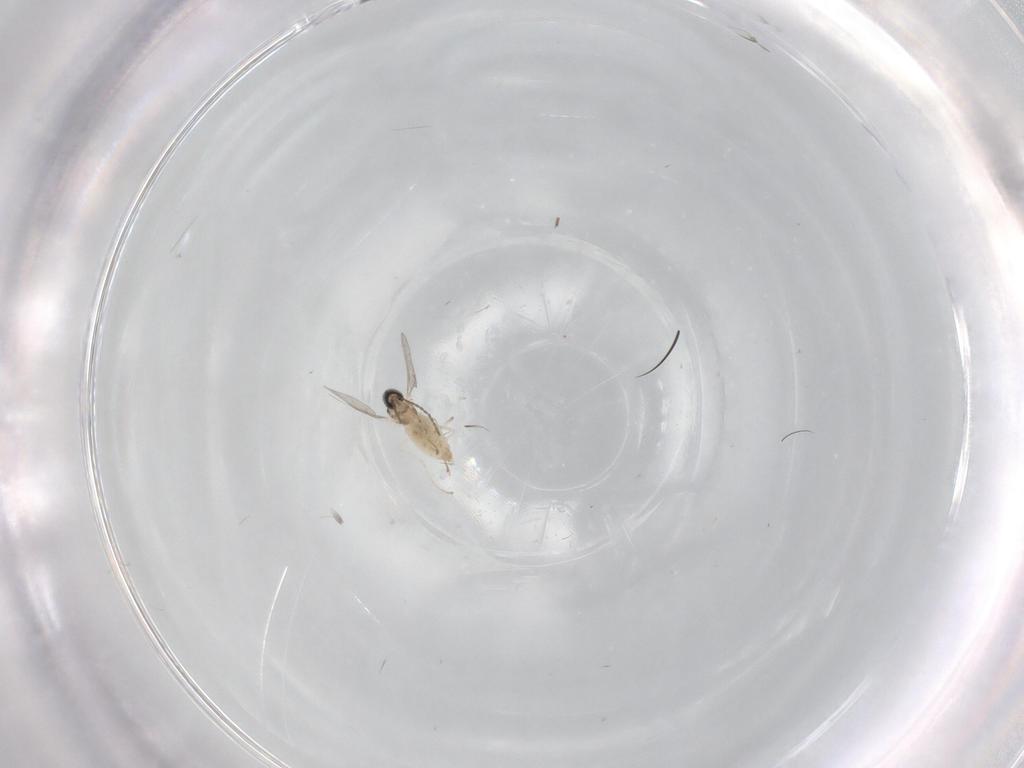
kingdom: Animalia
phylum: Arthropoda
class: Insecta
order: Diptera
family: Cecidomyiidae
